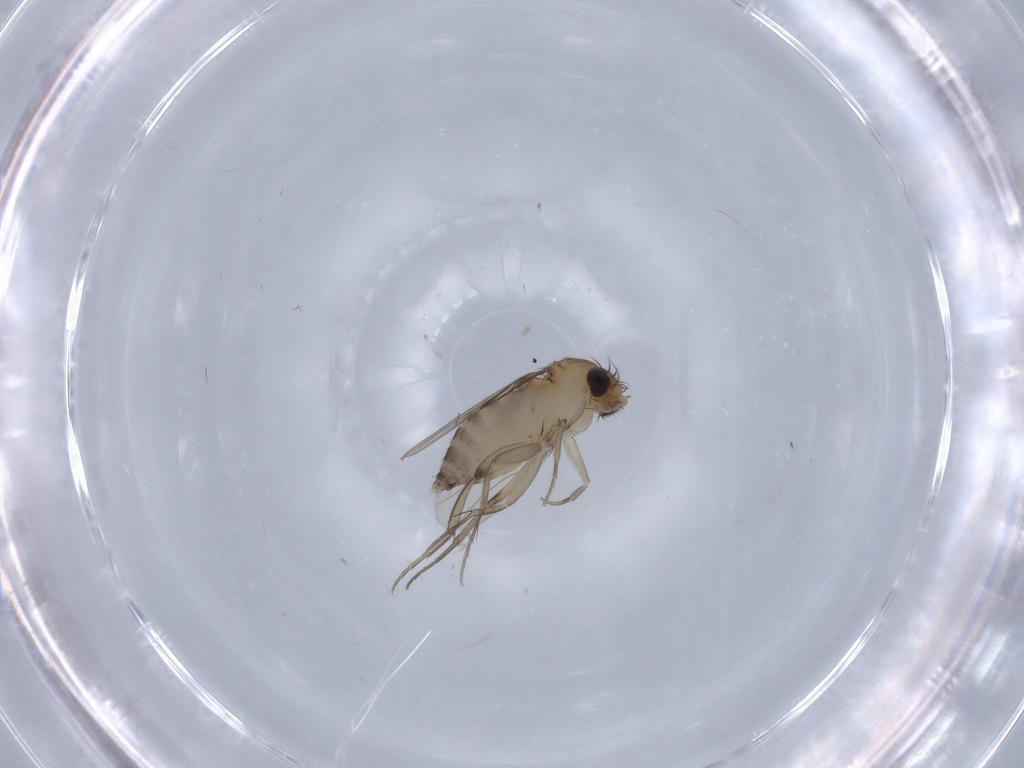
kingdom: Animalia
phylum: Arthropoda
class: Insecta
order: Diptera
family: Phoridae
